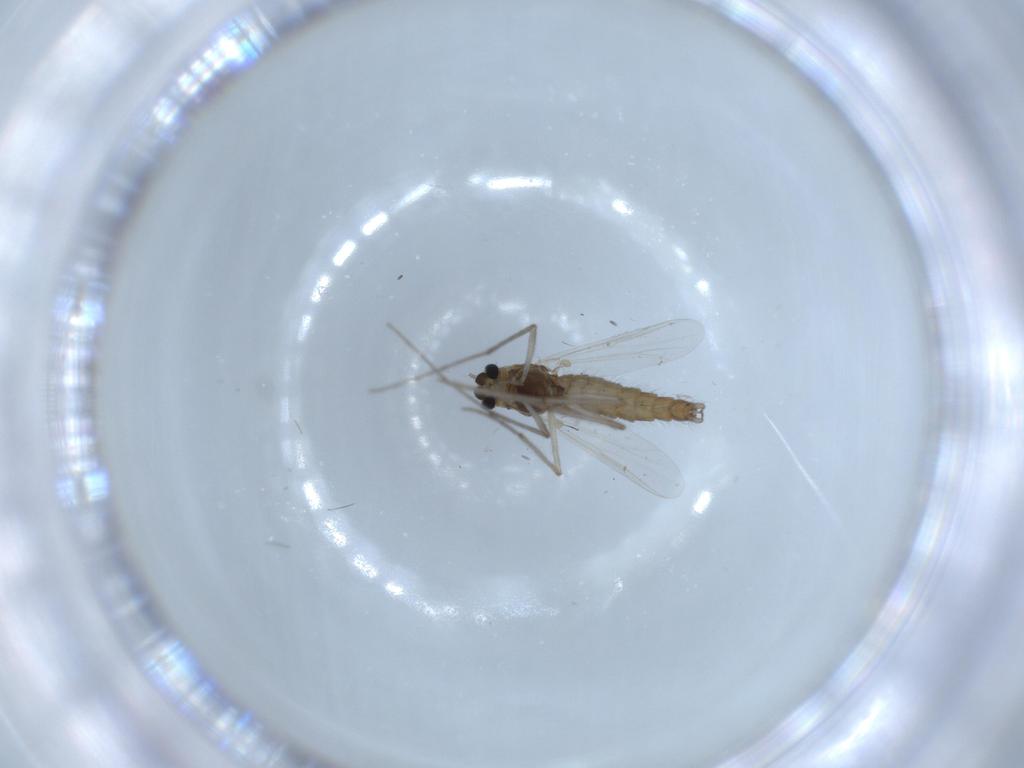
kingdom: Animalia
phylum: Arthropoda
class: Insecta
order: Diptera
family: Chironomidae
